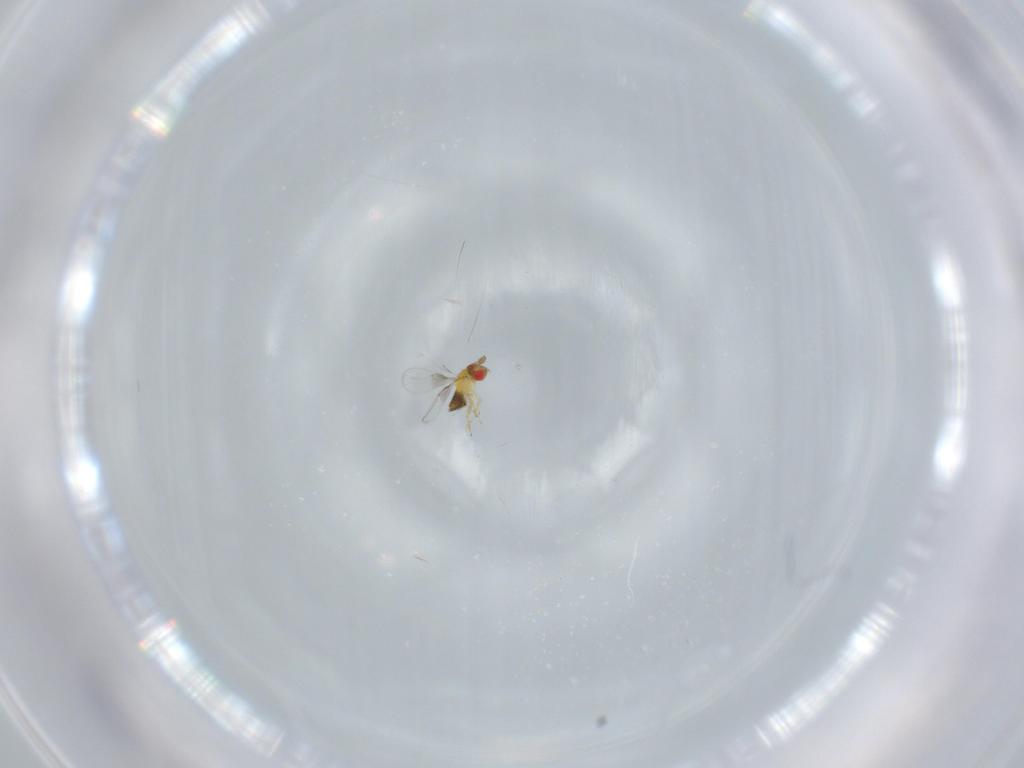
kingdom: Animalia
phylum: Arthropoda
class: Insecta
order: Hymenoptera
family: Trichogrammatidae
